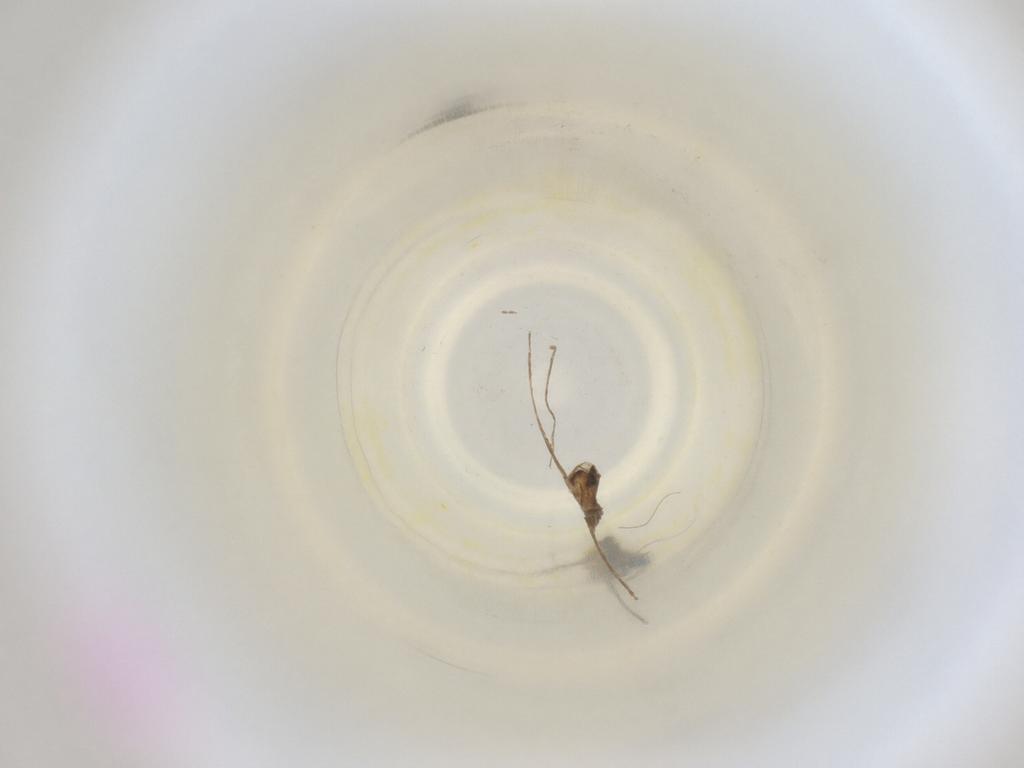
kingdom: Animalia
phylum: Arthropoda
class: Insecta
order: Diptera
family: Cecidomyiidae
